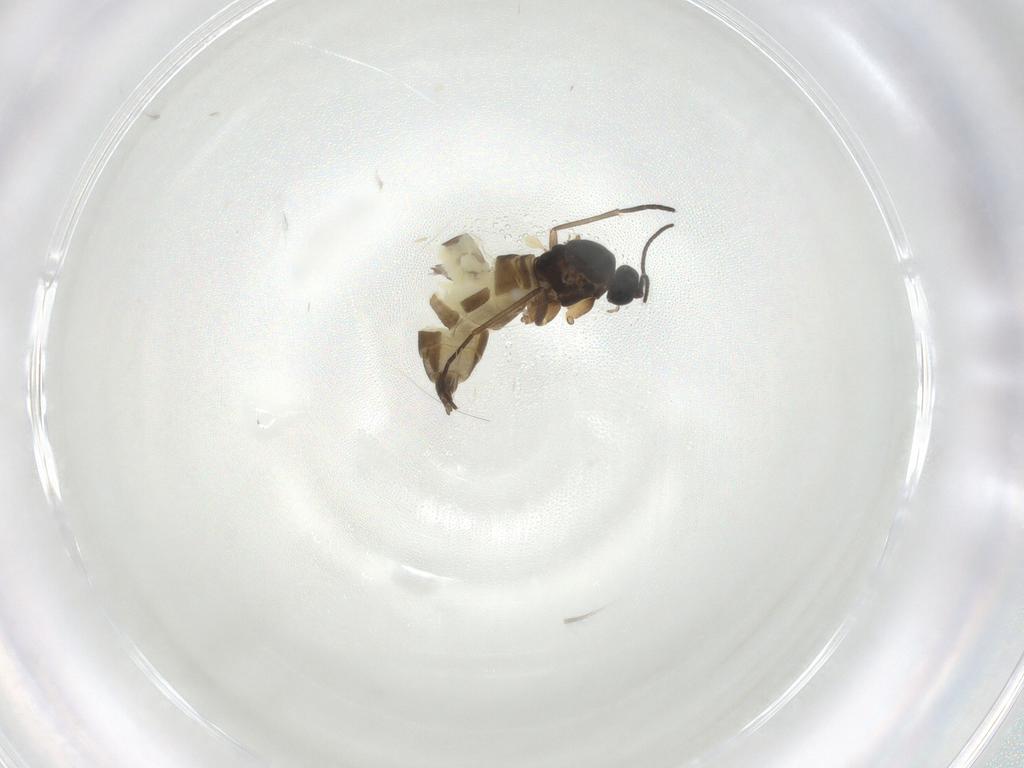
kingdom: Animalia
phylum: Arthropoda
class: Insecta
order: Diptera
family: Sciaridae
